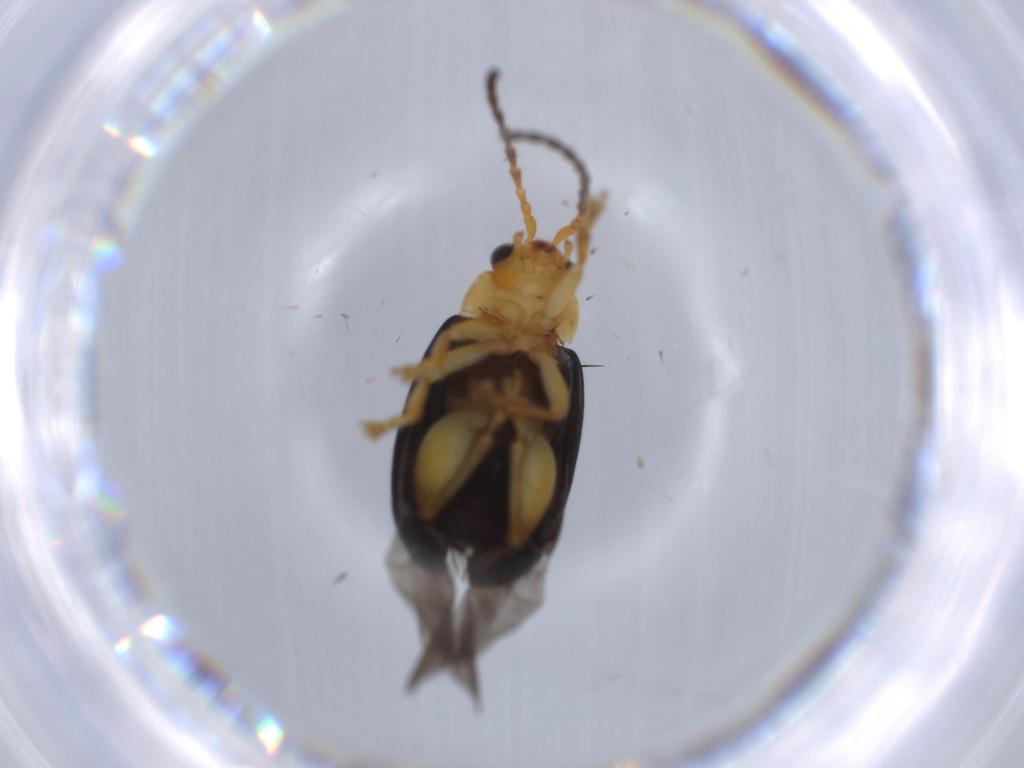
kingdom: Animalia
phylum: Arthropoda
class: Insecta
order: Coleoptera
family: Chrysomelidae
